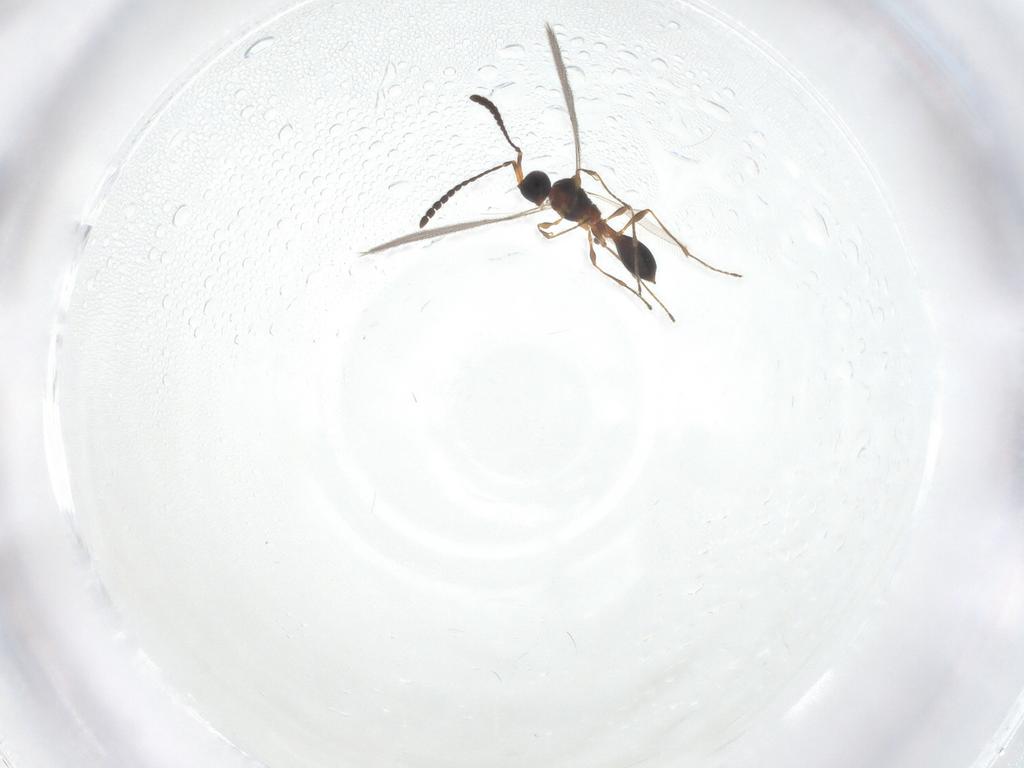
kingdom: Animalia
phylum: Arthropoda
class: Insecta
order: Hymenoptera
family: Diapriidae
